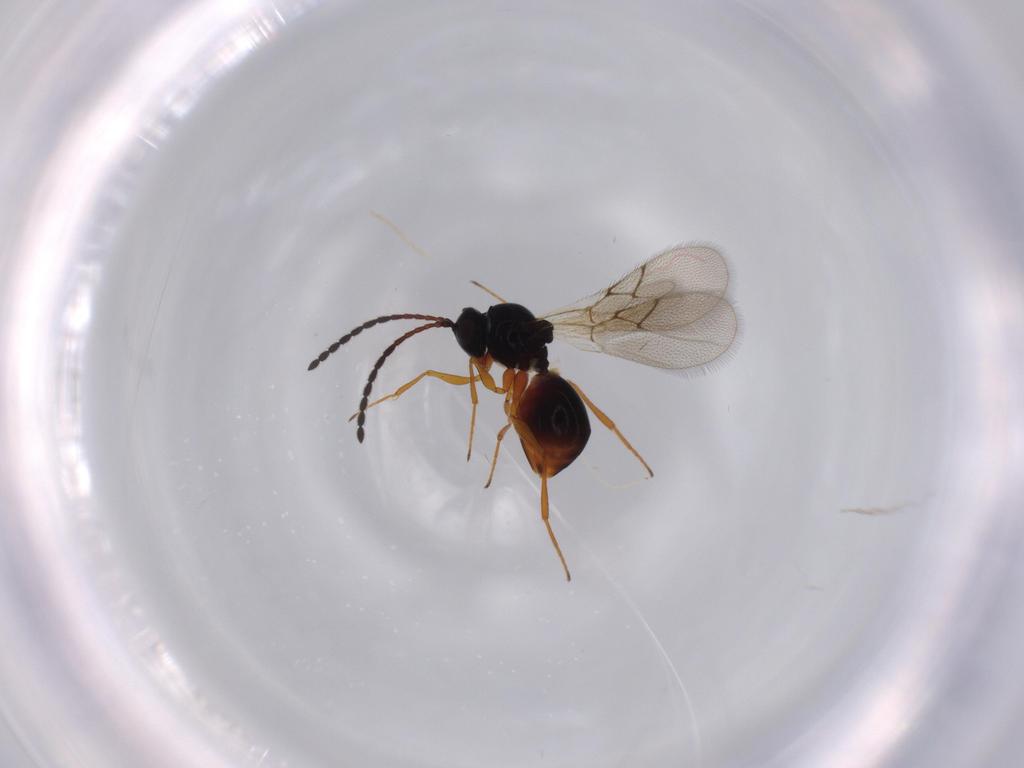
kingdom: Animalia
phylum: Arthropoda
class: Insecta
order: Hymenoptera
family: Figitidae
